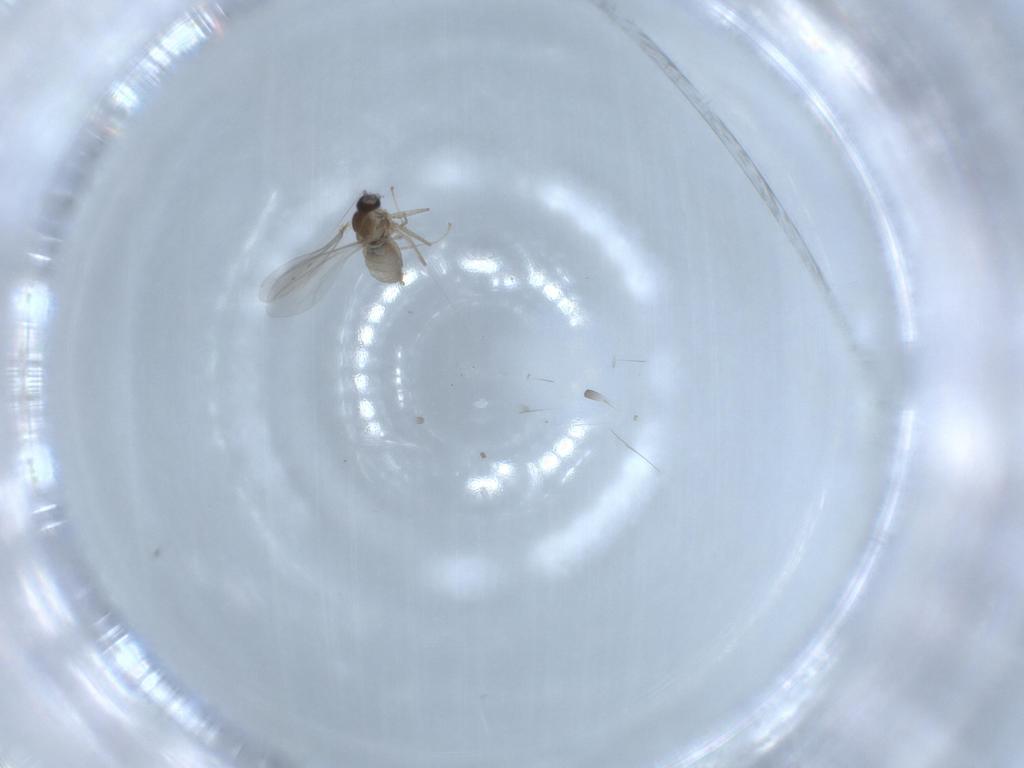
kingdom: Animalia
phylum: Arthropoda
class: Insecta
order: Diptera
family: Cecidomyiidae
